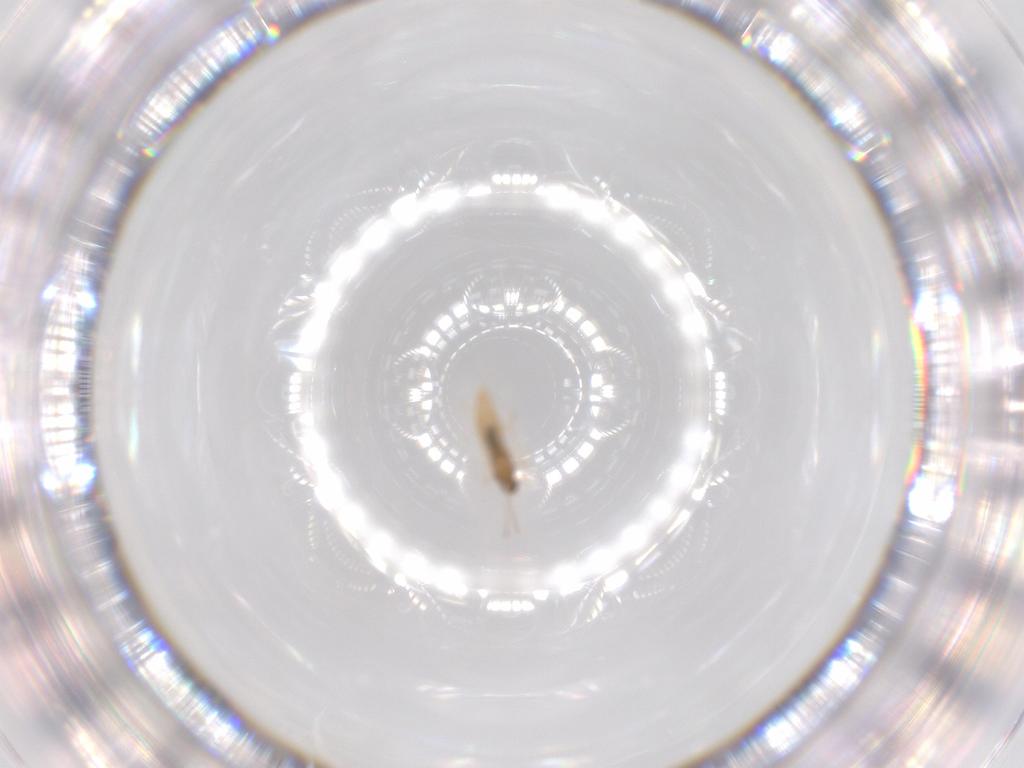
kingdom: Animalia
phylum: Arthropoda
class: Insecta
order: Diptera
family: Cecidomyiidae
